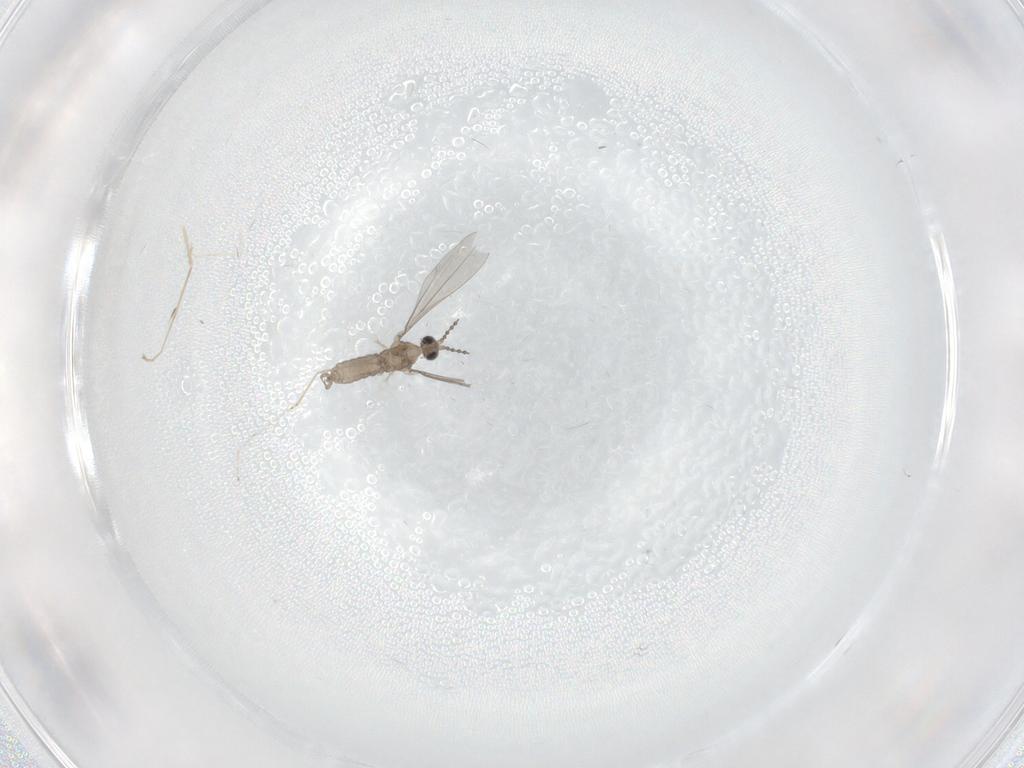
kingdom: Animalia
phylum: Arthropoda
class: Insecta
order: Diptera
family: Cecidomyiidae
